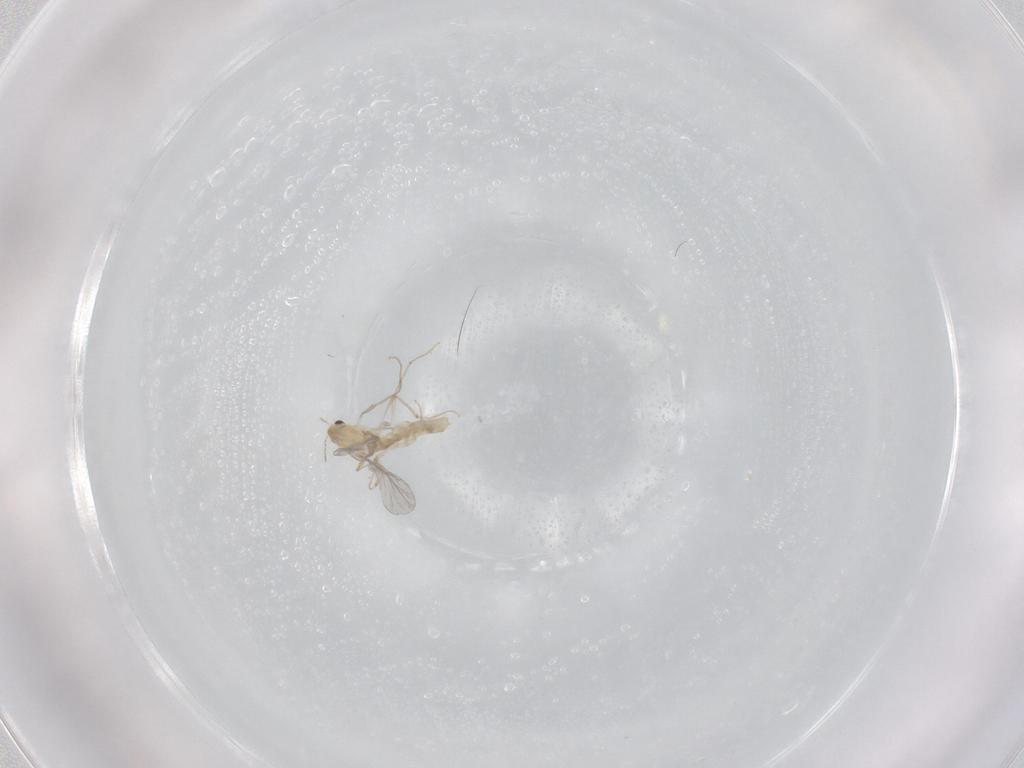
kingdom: Animalia
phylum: Arthropoda
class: Insecta
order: Diptera
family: Chironomidae
